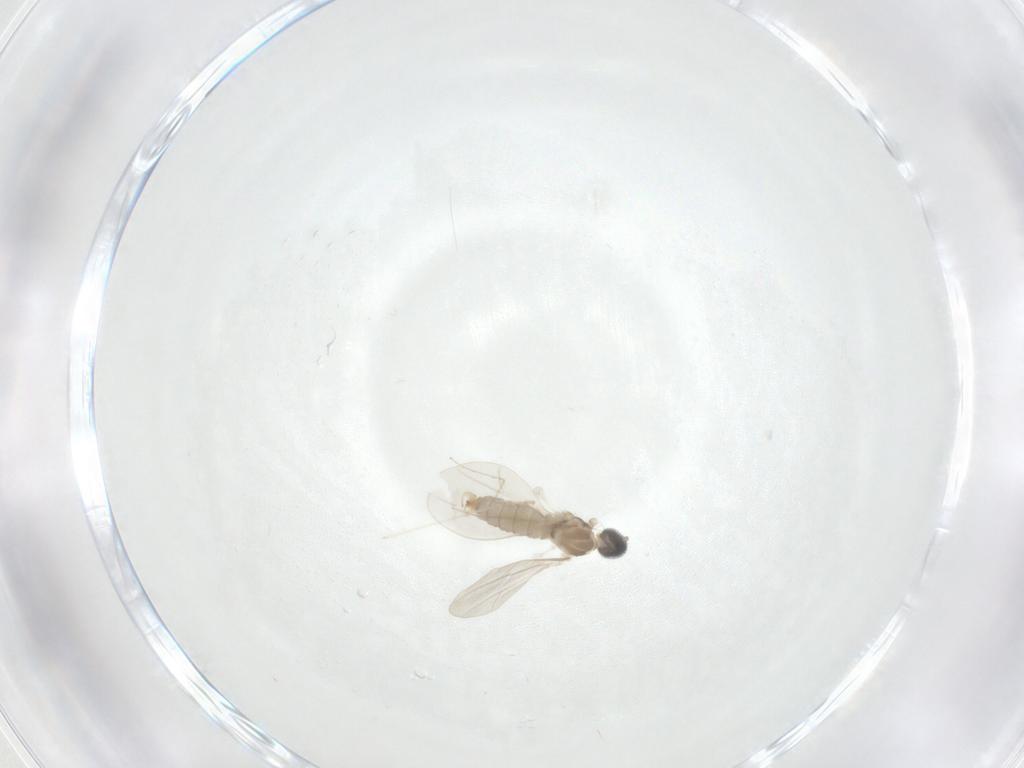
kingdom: Animalia
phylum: Arthropoda
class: Insecta
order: Diptera
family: Cecidomyiidae
